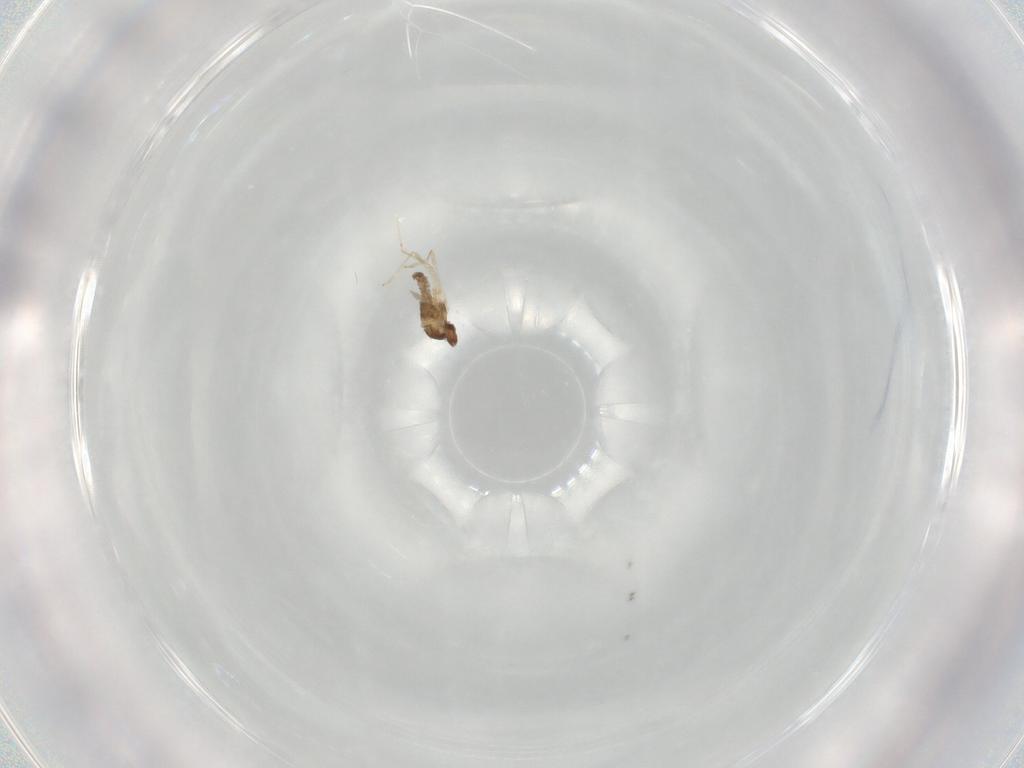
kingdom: Animalia
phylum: Arthropoda
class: Insecta
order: Diptera
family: Cecidomyiidae
